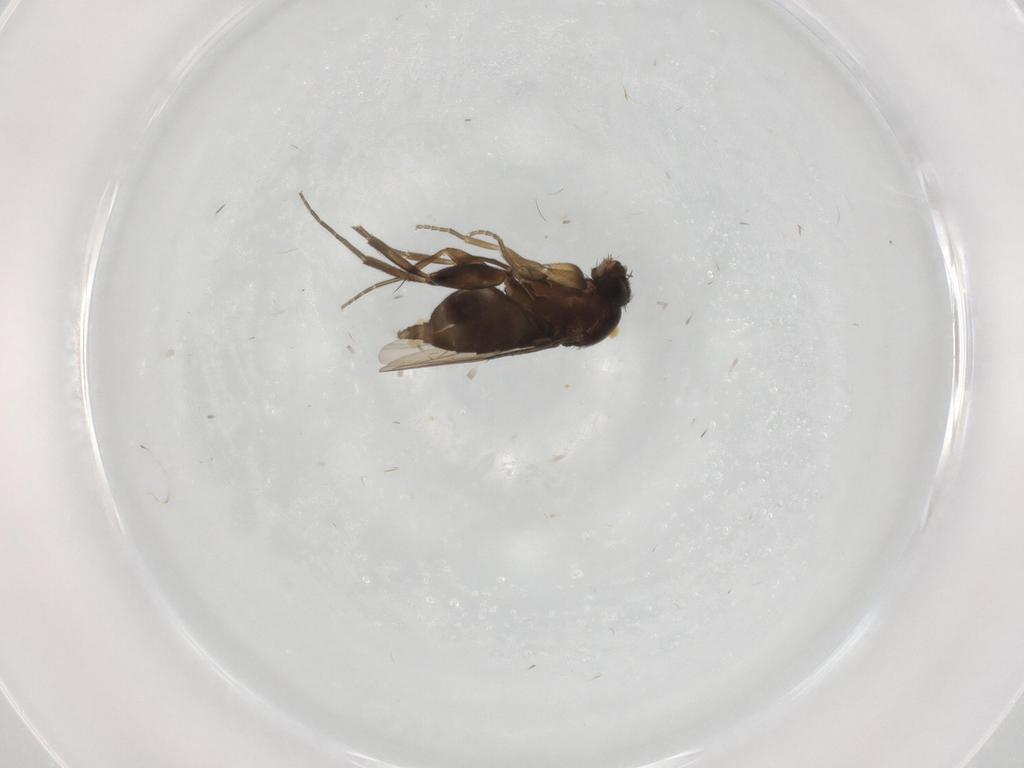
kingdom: Animalia
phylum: Arthropoda
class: Insecta
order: Diptera
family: Phoridae
